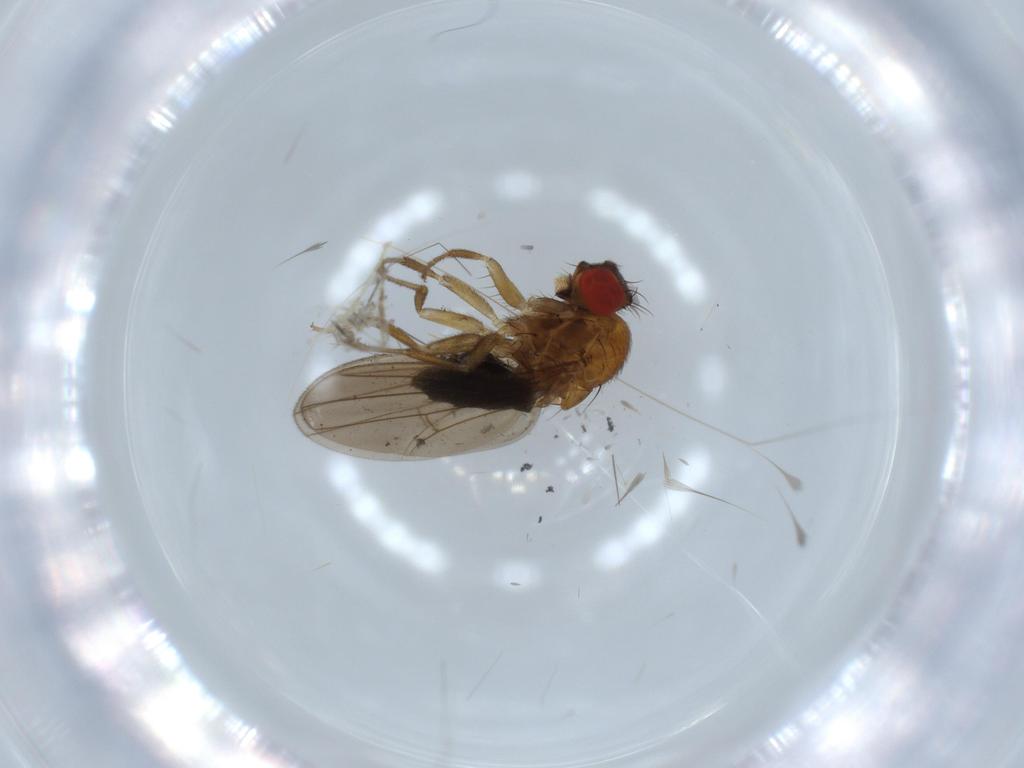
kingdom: Animalia
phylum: Arthropoda
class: Insecta
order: Diptera
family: Drosophilidae
